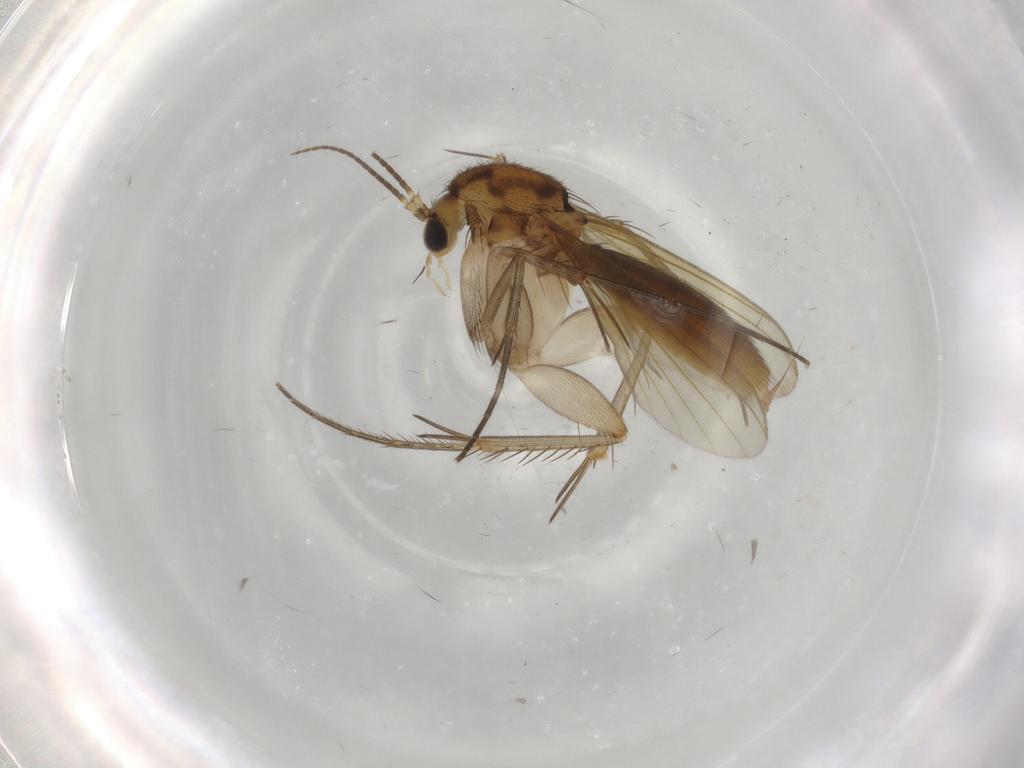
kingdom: Animalia
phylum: Arthropoda
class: Insecta
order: Diptera
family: Mycetophilidae
